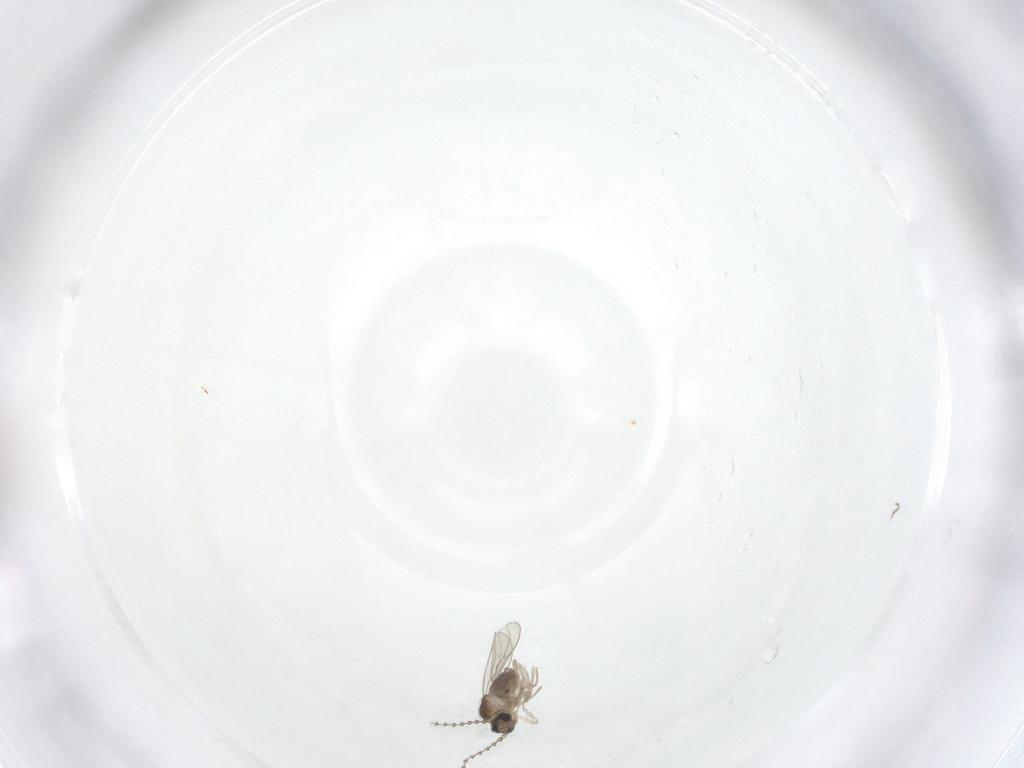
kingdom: Animalia
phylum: Arthropoda
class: Insecta
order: Diptera
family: Cecidomyiidae
